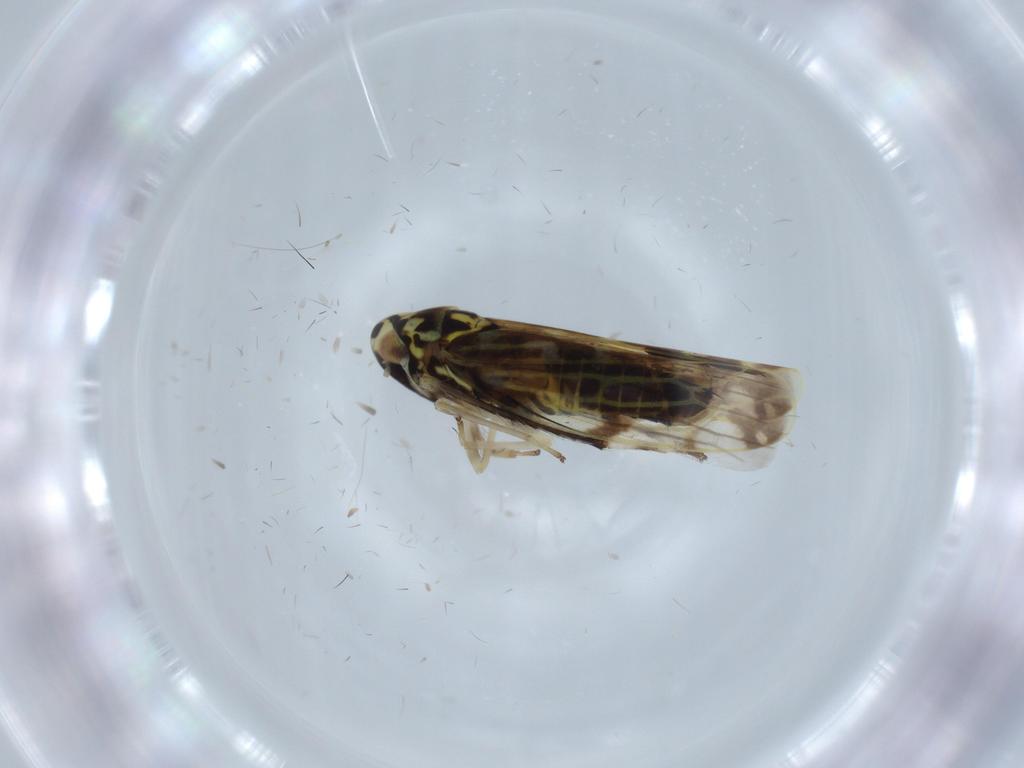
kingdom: Animalia
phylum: Arthropoda
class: Insecta
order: Hemiptera
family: Cicadellidae
